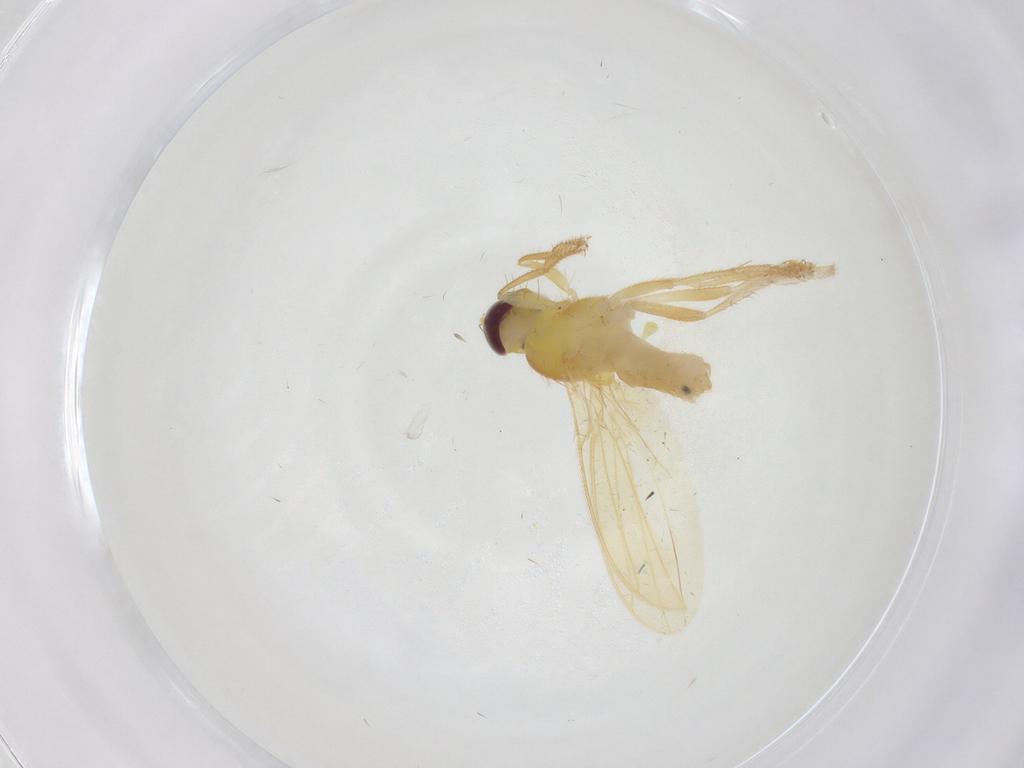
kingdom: Animalia
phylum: Arthropoda
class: Insecta
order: Diptera
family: Periscelididae
